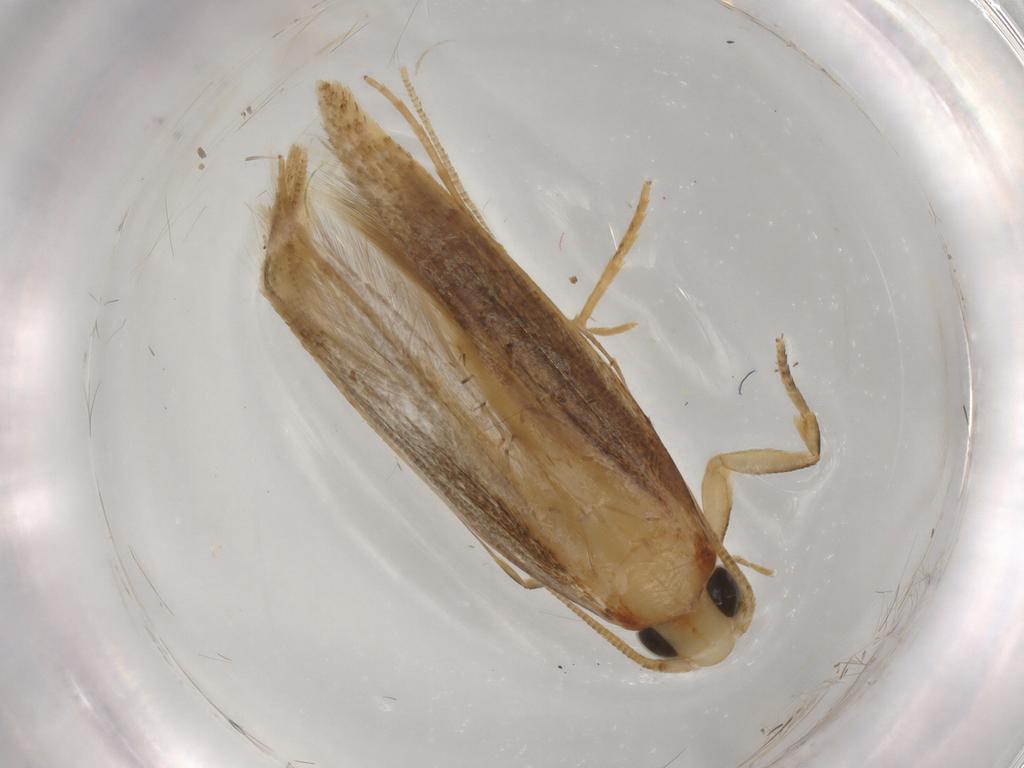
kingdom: Animalia
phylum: Arthropoda
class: Insecta
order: Lepidoptera
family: Tineidae
